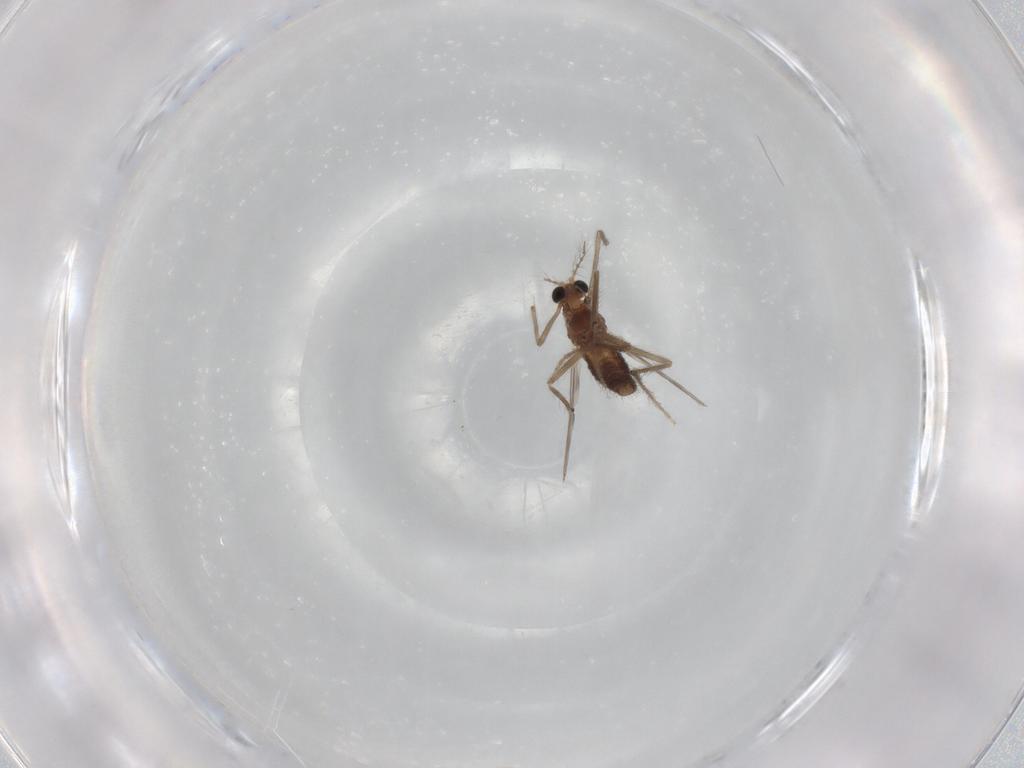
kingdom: Animalia
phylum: Arthropoda
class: Insecta
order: Diptera
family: Chironomidae
